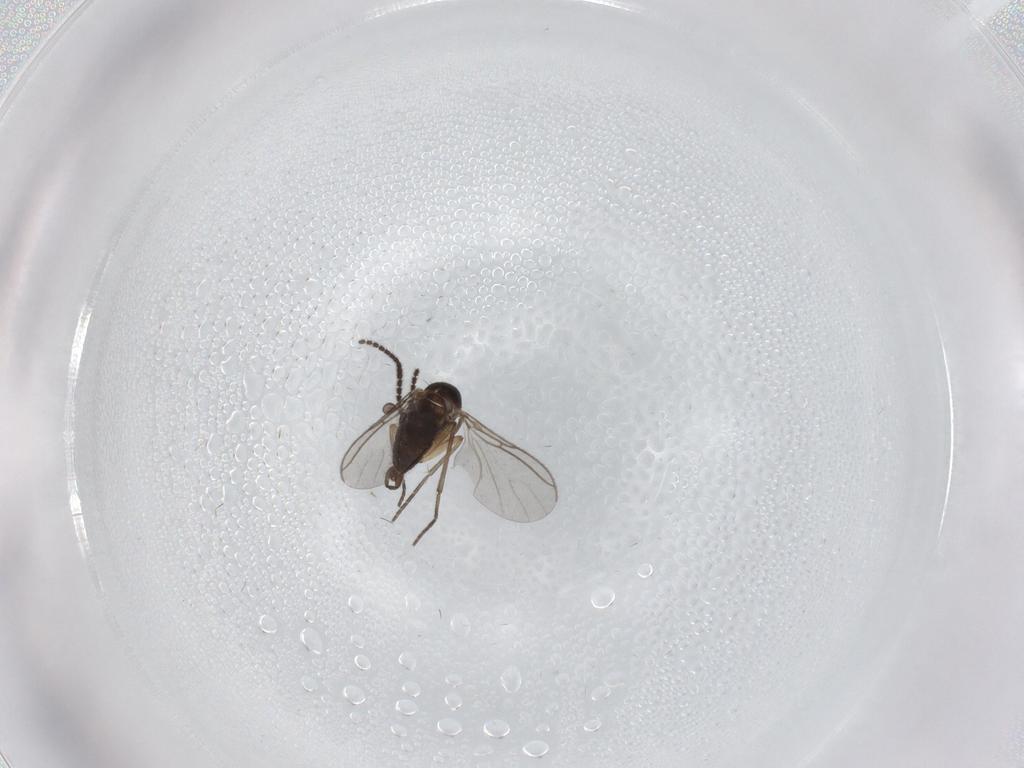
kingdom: Animalia
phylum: Arthropoda
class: Insecta
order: Diptera
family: Sciaridae
